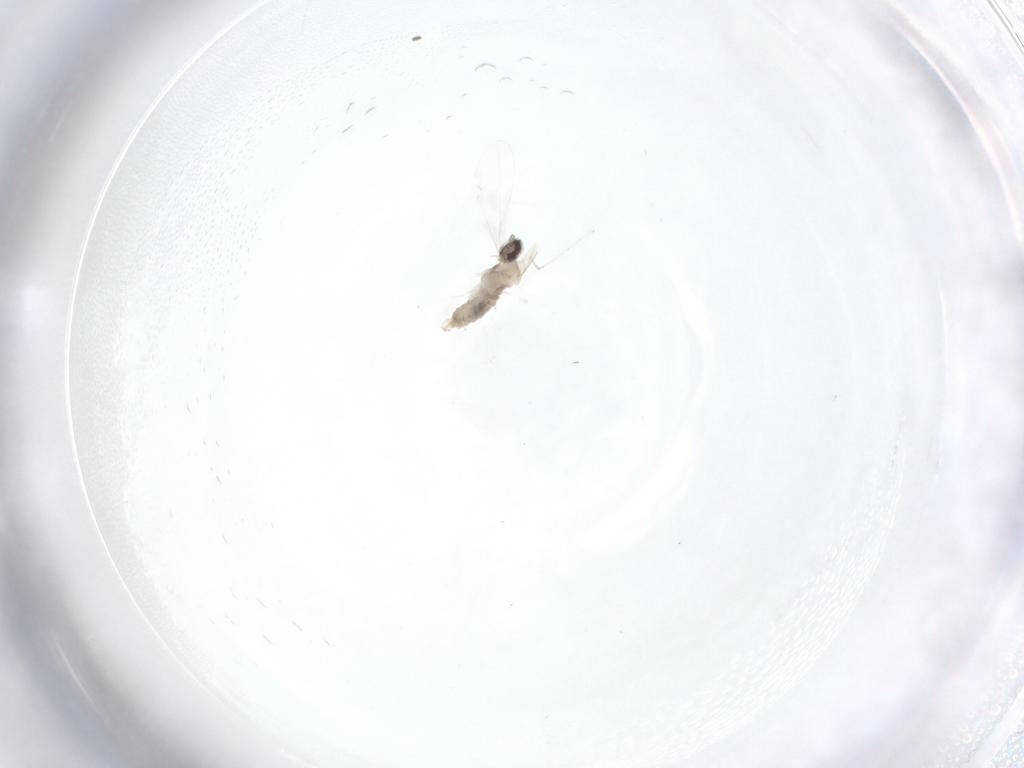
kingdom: Animalia
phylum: Arthropoda
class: Insecta
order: Diptera
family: Cecidomyiidae
